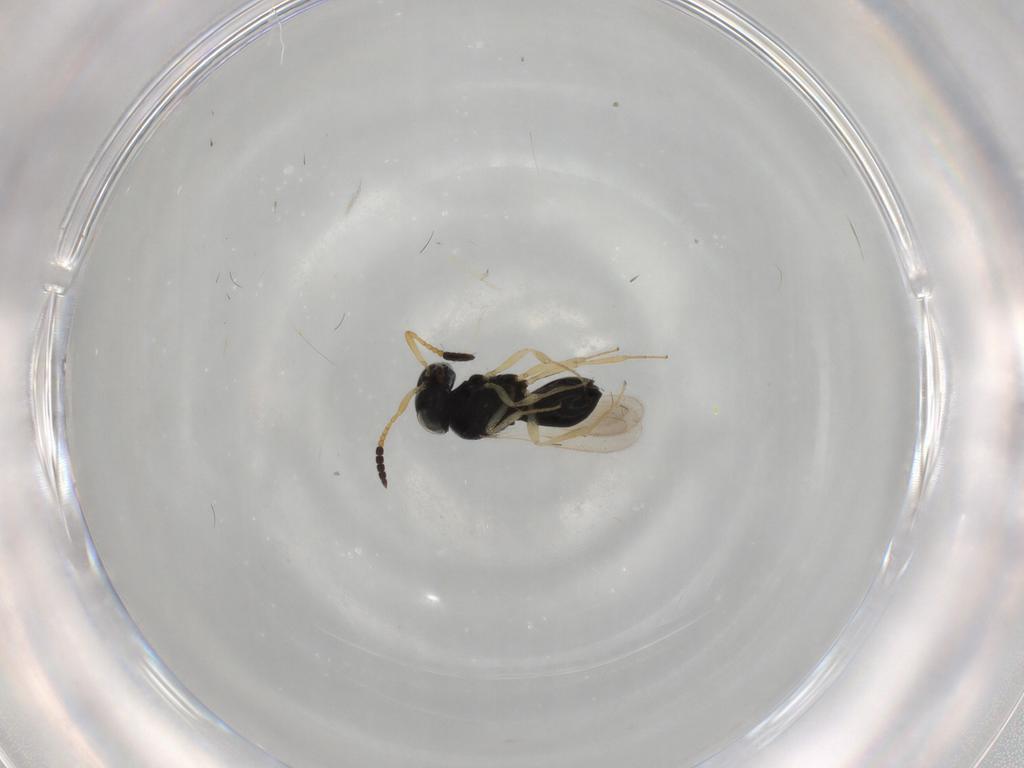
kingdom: Animalia
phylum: Arthropoda
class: Insecta
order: Hymenoptera
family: Scelionidae
